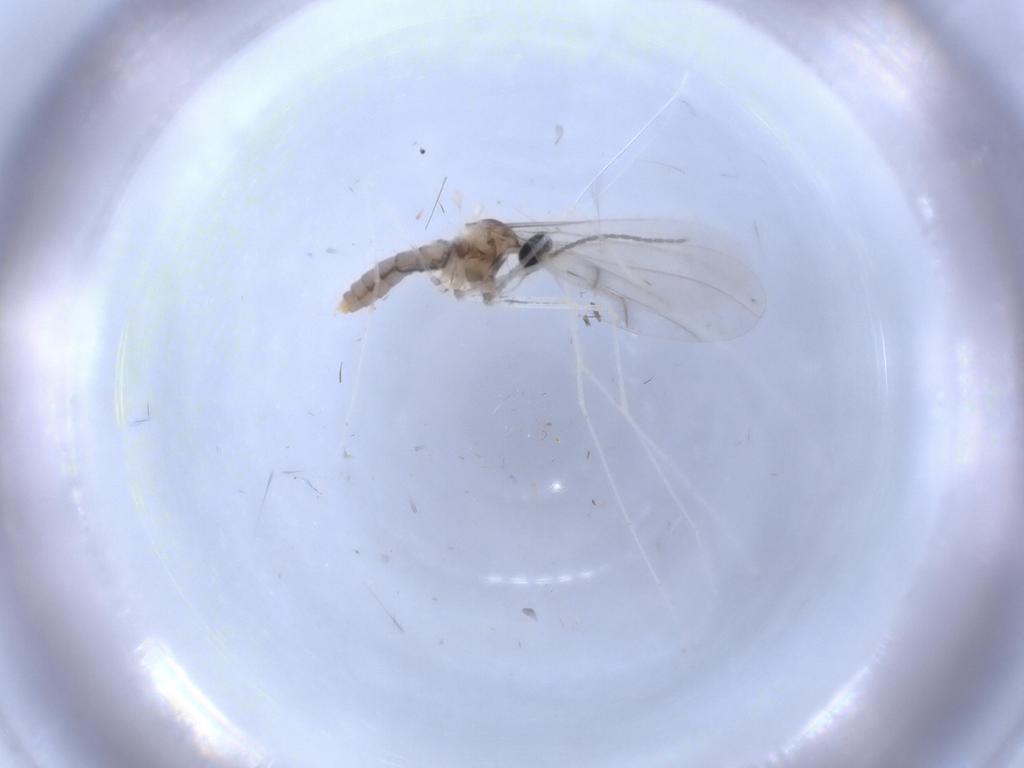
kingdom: Animalia
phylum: Arthropoda
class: Insecta
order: Diptera
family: Cecidomyiidae
